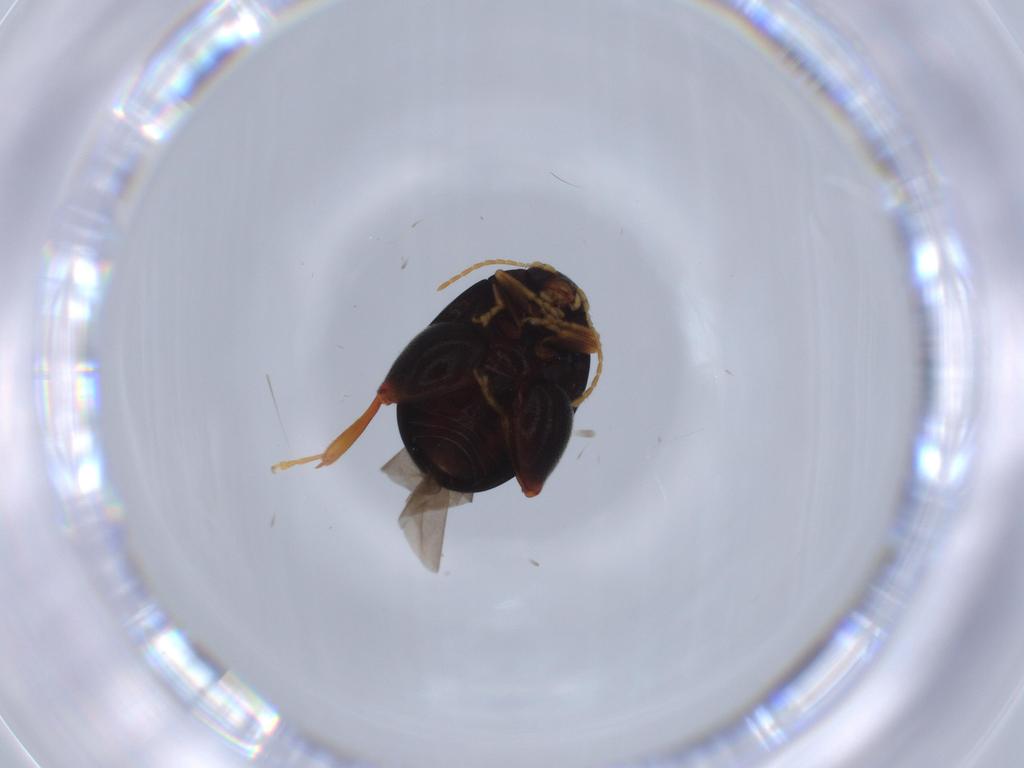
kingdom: Animalia
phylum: Arthropoda
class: Insecta
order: Coleoptera
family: Chrysomelidae
